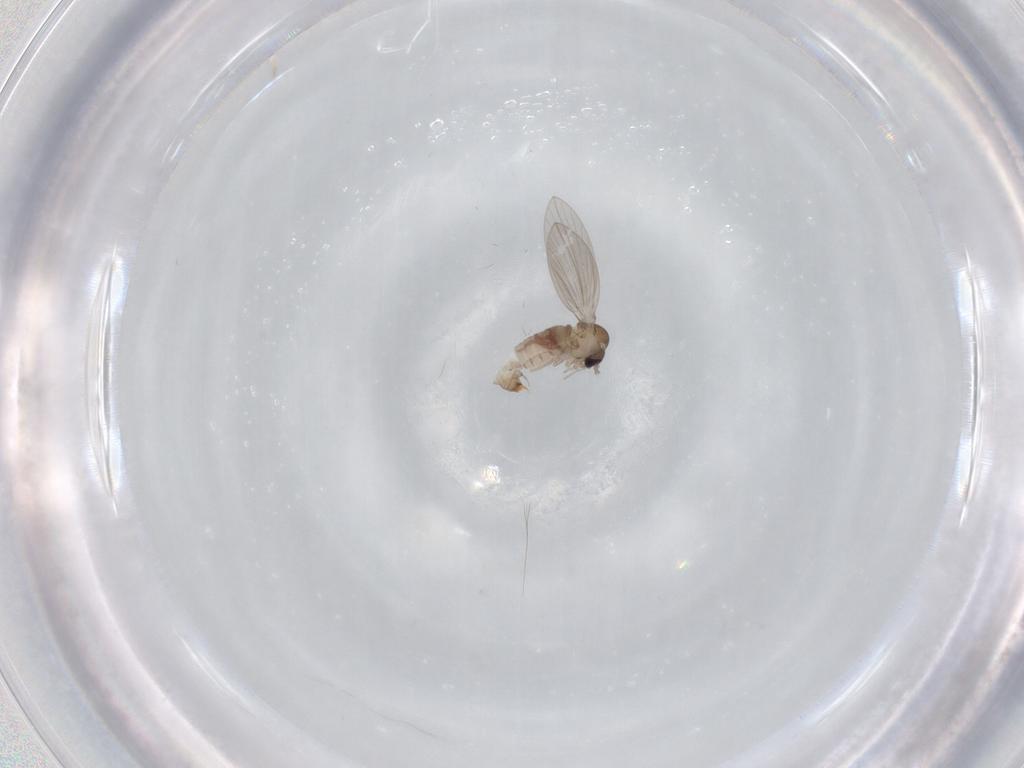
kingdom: Animalia
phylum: Arthropoda
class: Insecta
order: Diptera
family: Psychodidae
